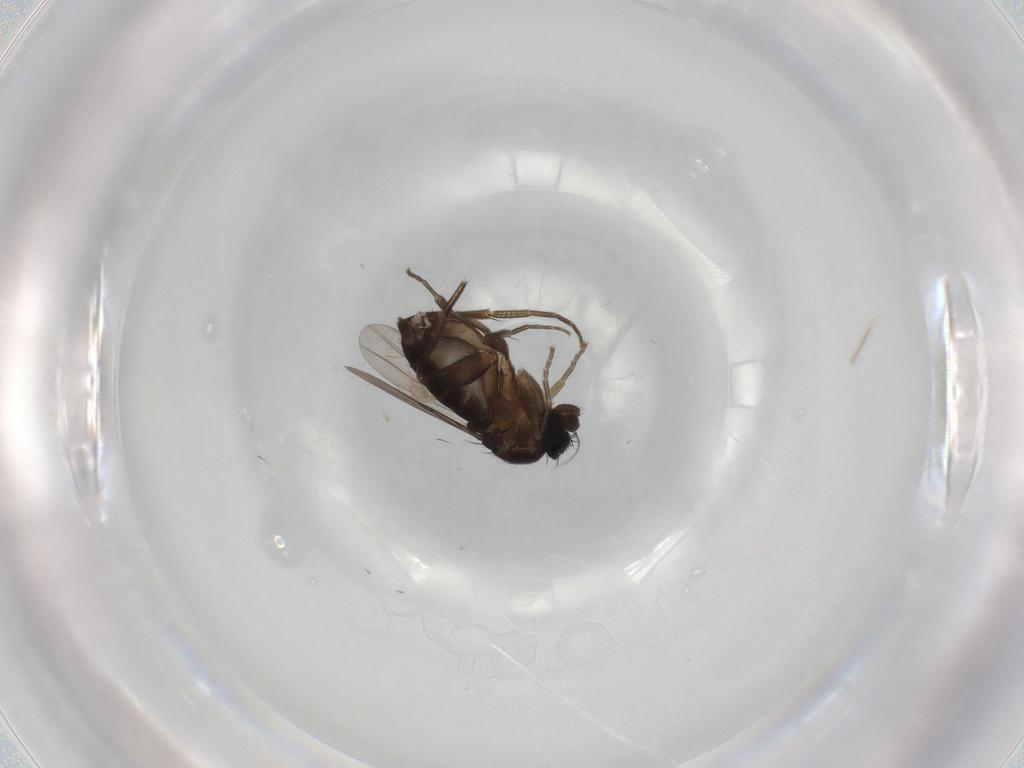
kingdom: Animalia
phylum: Arthropoda
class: Insecta
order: Diptera
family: Phoridae
